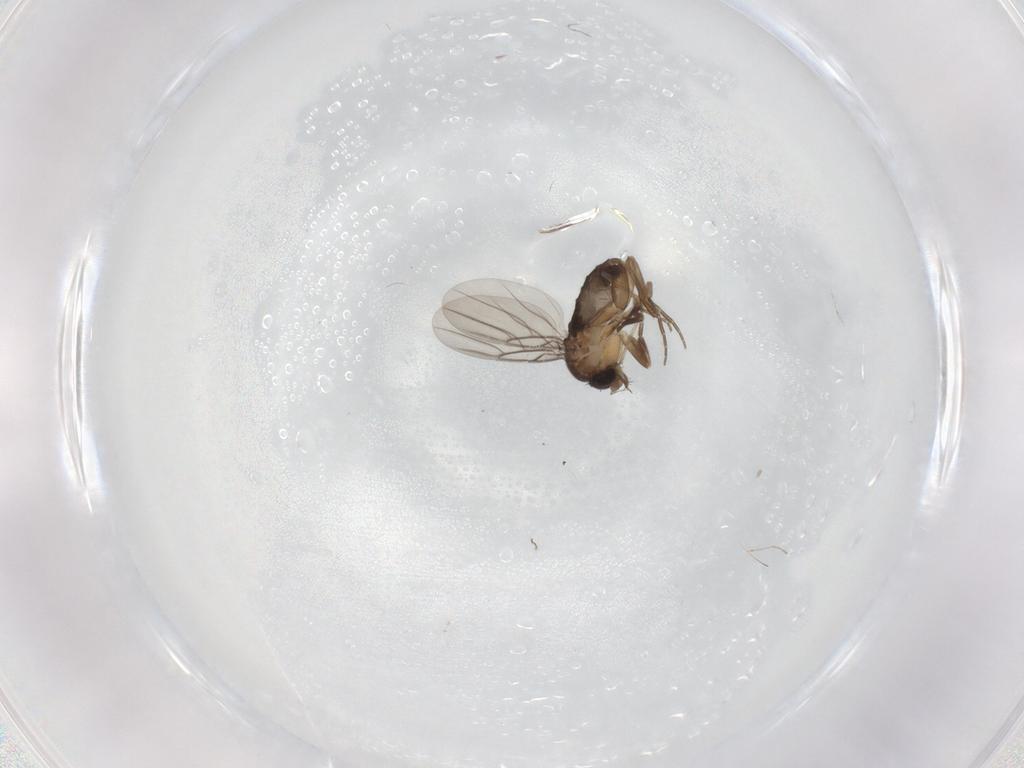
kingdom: Animalia
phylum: Arthropoda
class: Insecta
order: Diptera
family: Phoridae
